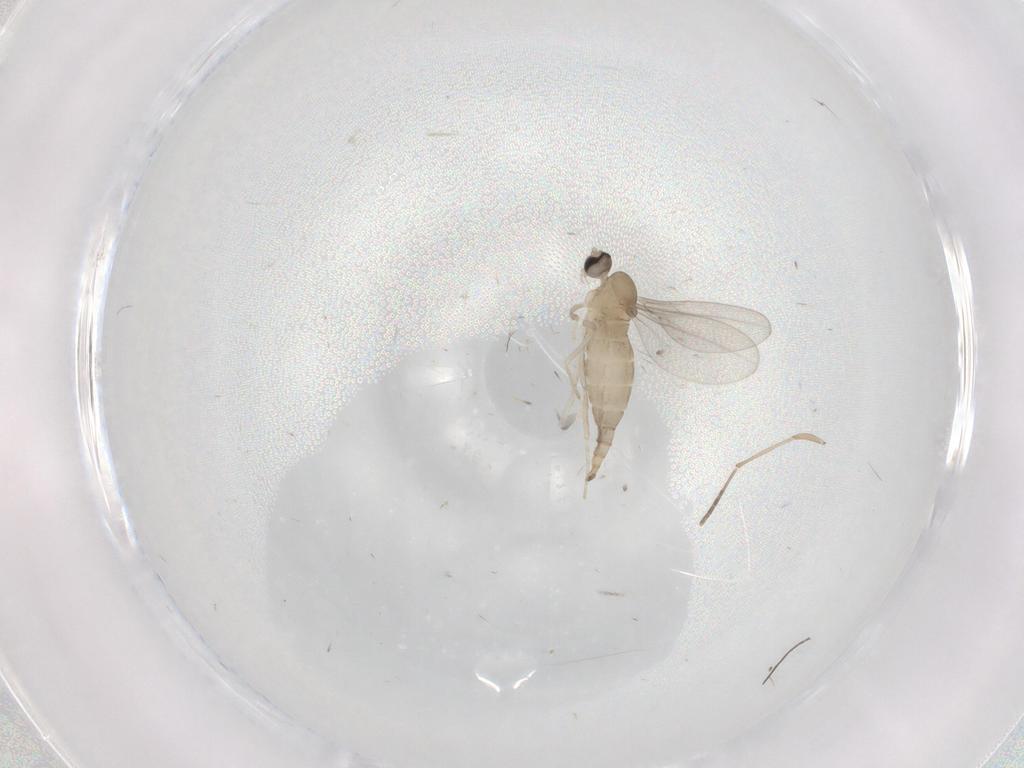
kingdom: Animalia
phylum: Arthropoda
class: Insecta
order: Diptera
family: Cecidomyiidae
